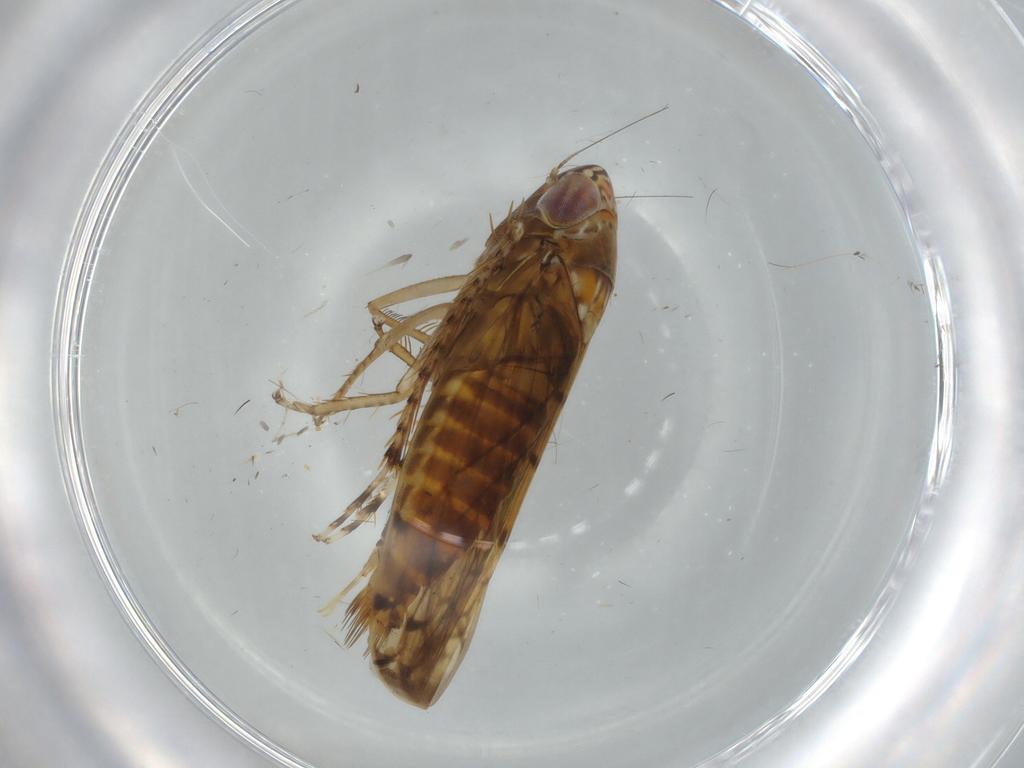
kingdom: Animalia
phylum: Arthropoda
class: Insecta
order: Hemiptera
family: Cicadellidae
